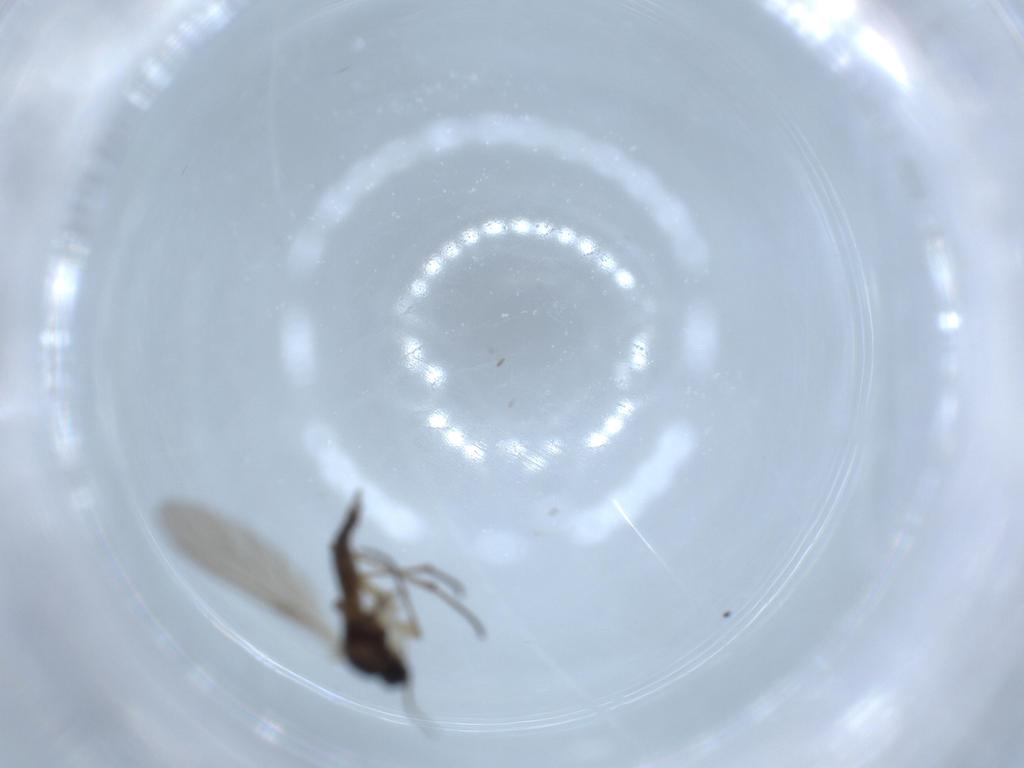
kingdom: Animalia
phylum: Arthropoda
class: Insecta
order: Diptera
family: Sciaridae
